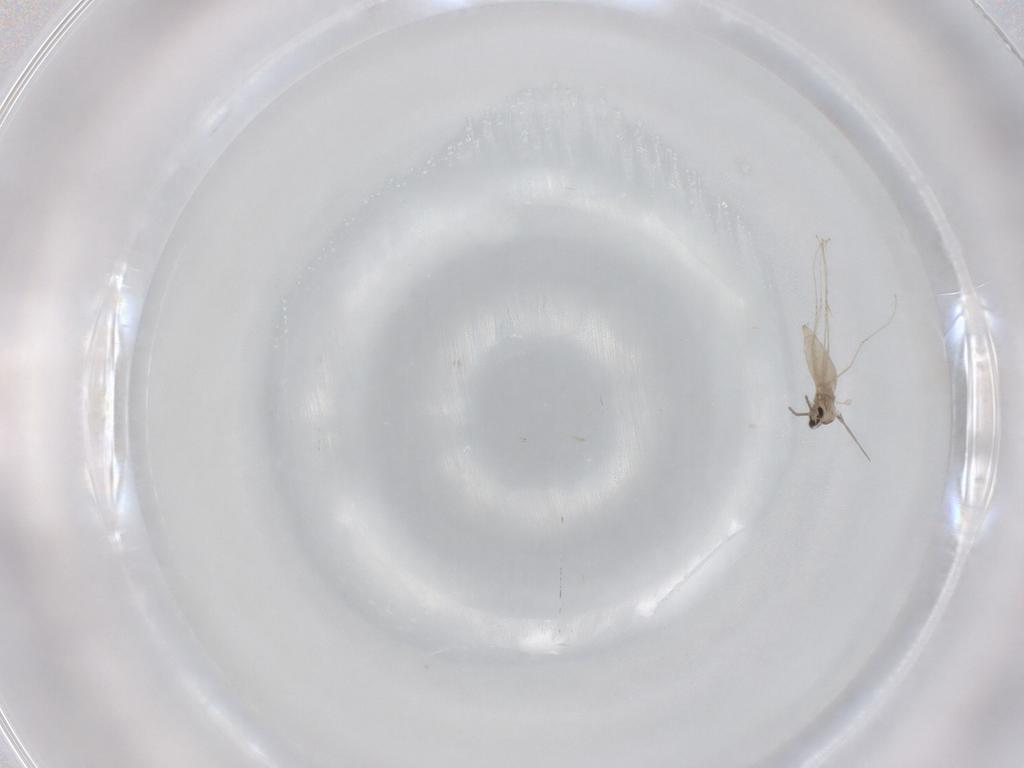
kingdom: Animalia
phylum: Arthropoda
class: Insecta
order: Diptera
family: Cecidomyiidae
